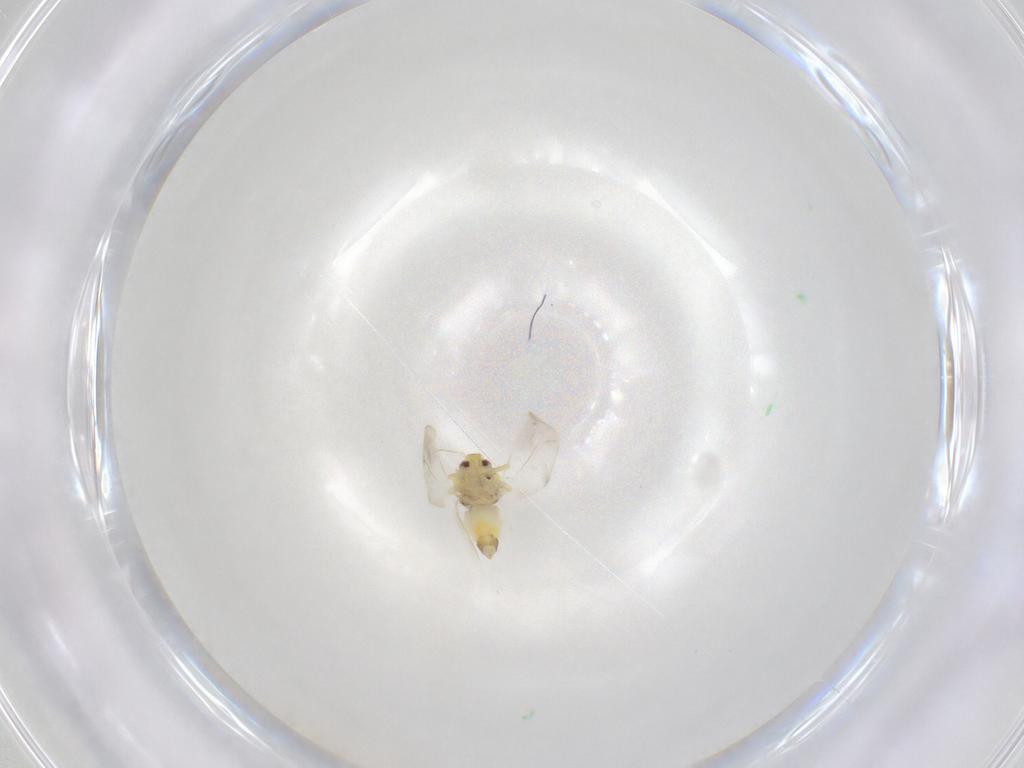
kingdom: Animalia
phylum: Arthropoda
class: Insecta
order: Hemiptera
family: Aleyrodidae
